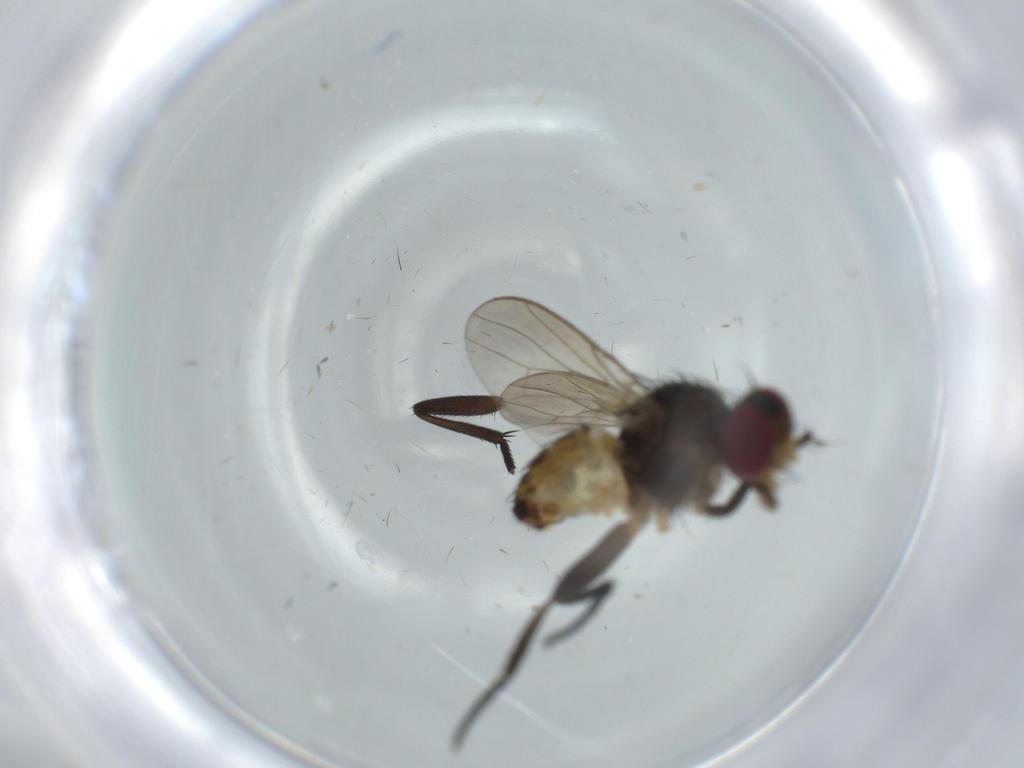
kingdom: Animalia
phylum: Arthropoda
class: Insecta
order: Diptera
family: Anthomyiidae
